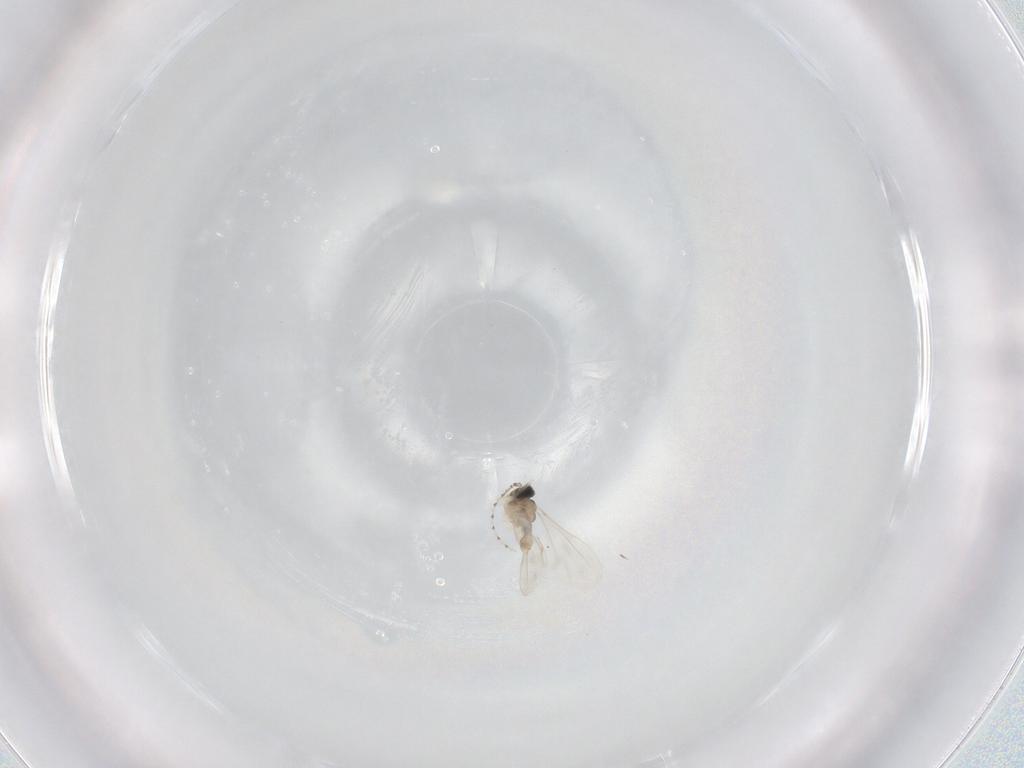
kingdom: Animalia
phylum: Arthropoda
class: Insecta
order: Diptera
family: Cecidomyiidae
